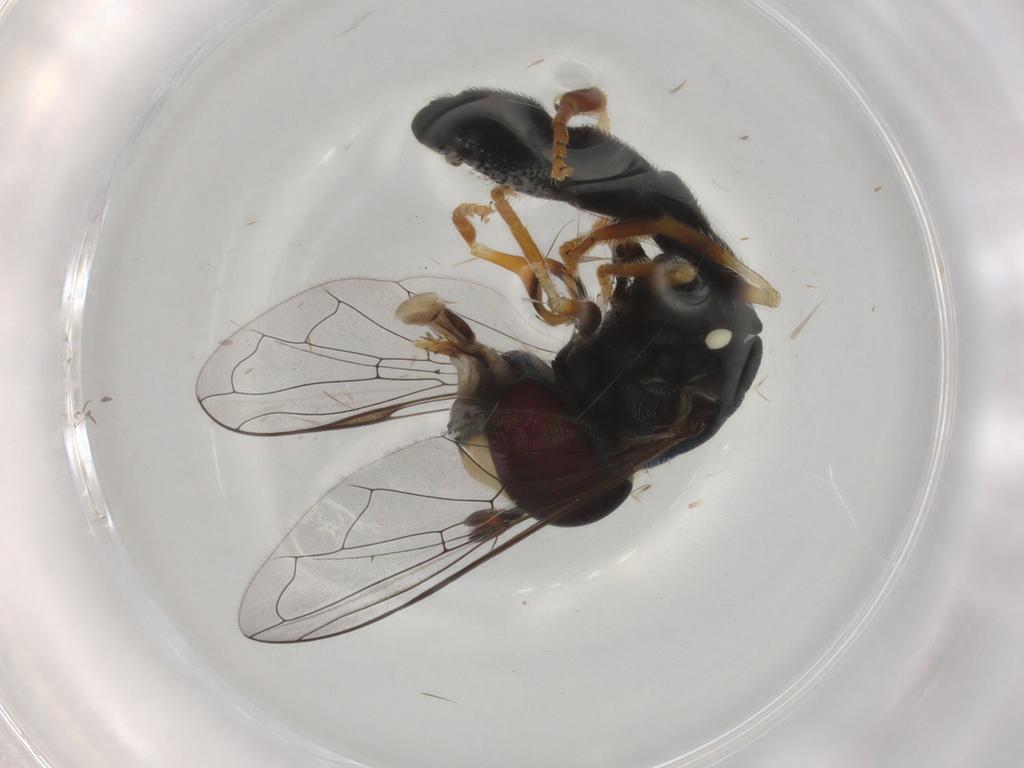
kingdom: Animalia
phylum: Arthropoda
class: Insecta
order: Diptera
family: Syrphidae
